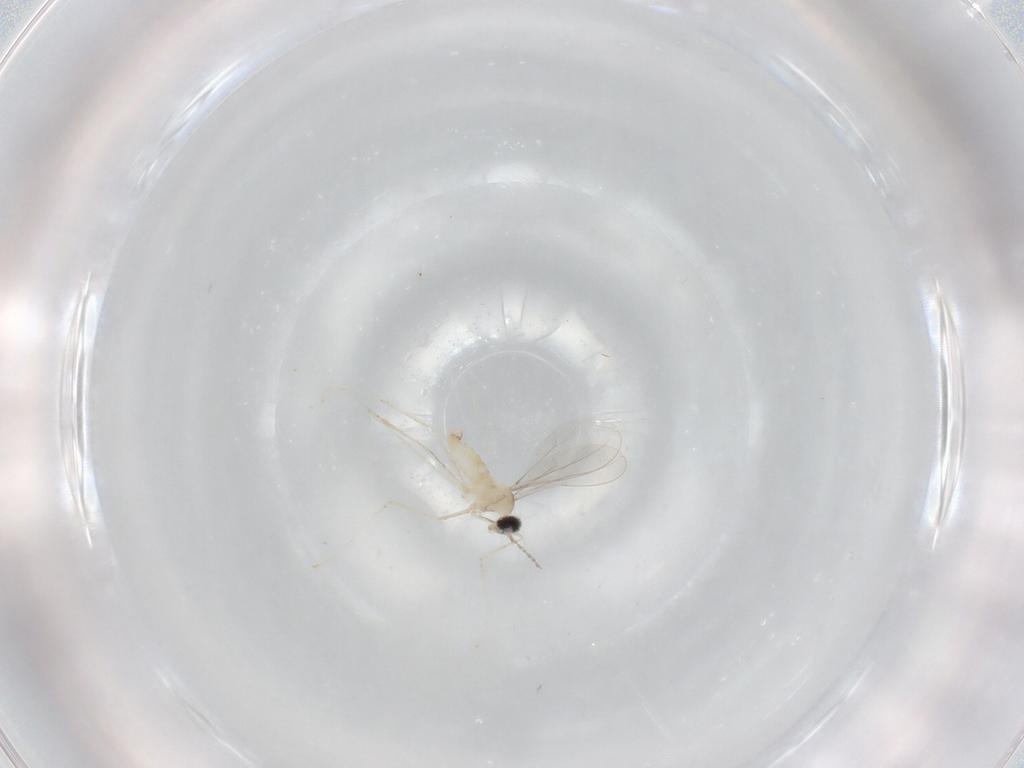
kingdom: Animalia
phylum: Arthropoda
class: Insecta
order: Diptera
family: Cecidomyiidae
